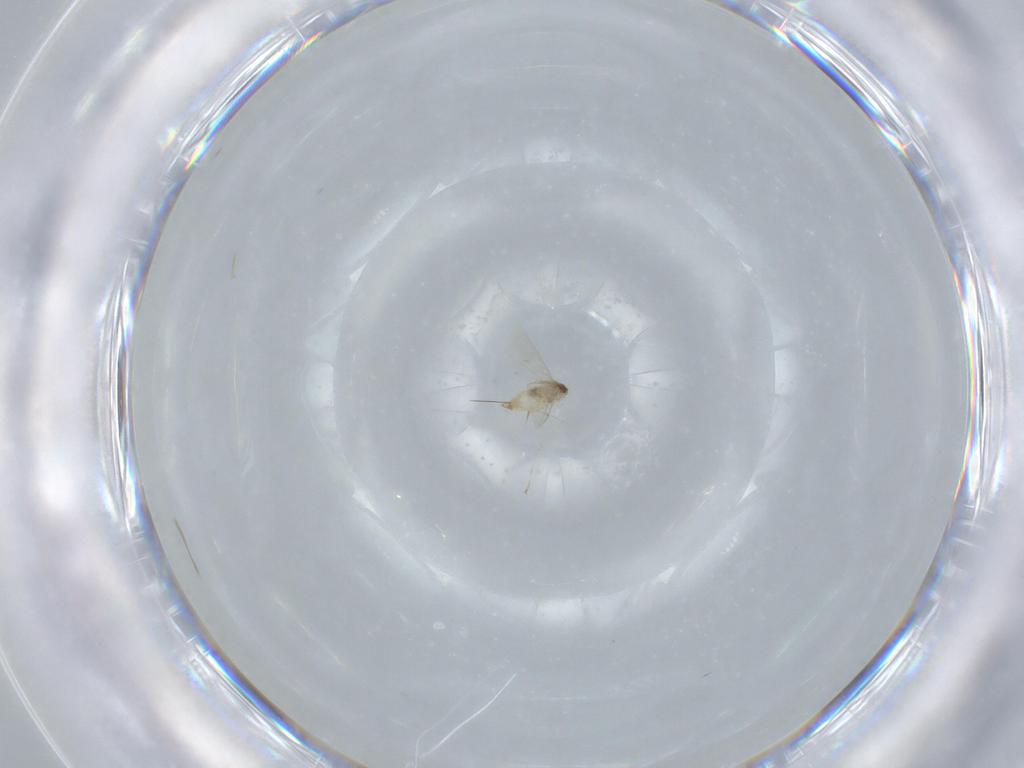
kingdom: Animalia
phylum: Arthropoda
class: Insecta
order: Diptera
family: Cecidomyiidae
